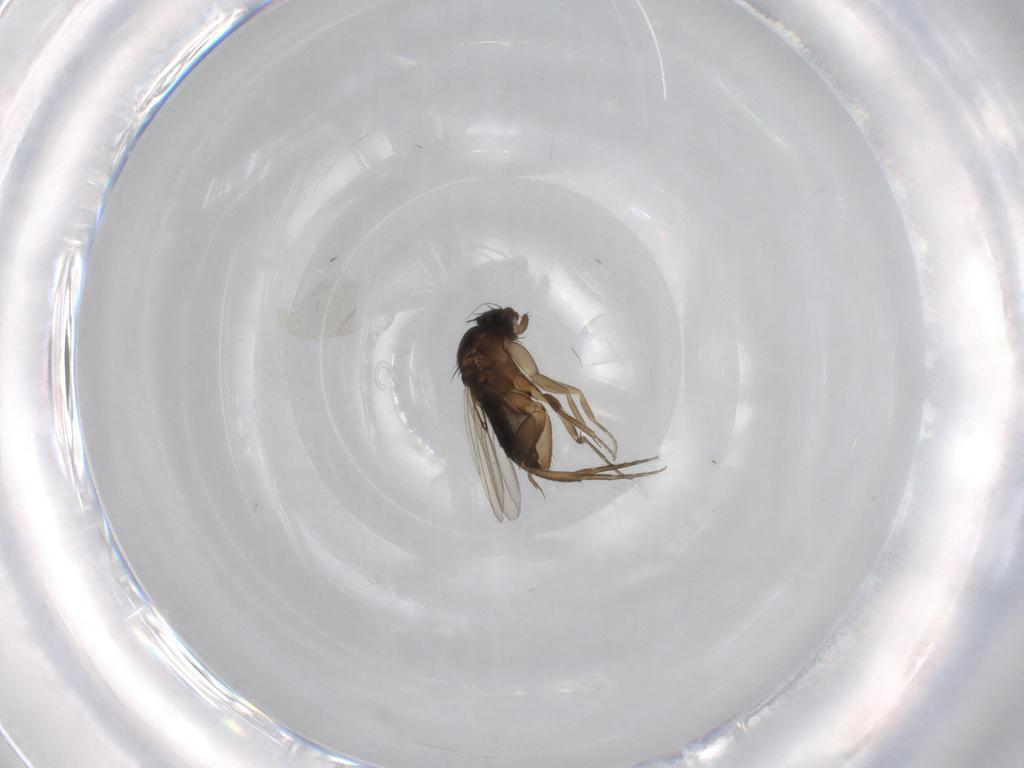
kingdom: Animalia
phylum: Arthropoda
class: Insecta
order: Diptera
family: Phoridae
